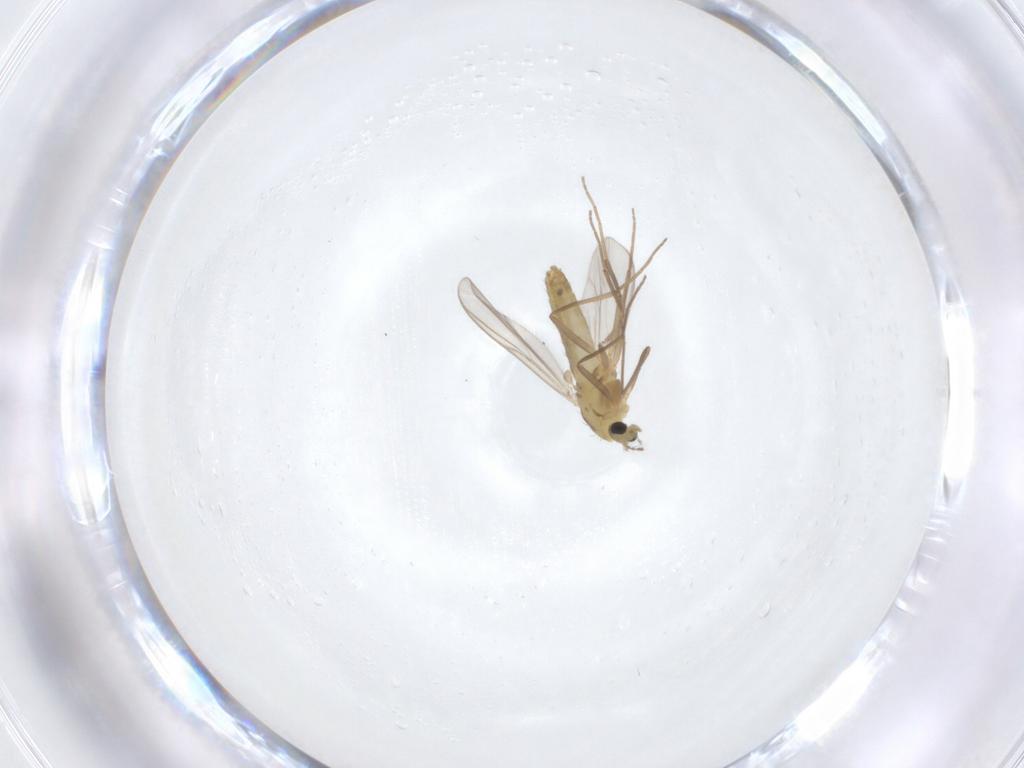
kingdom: Animalia
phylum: Arthropoda
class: Insecta
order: Diptera
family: Chironomidae
